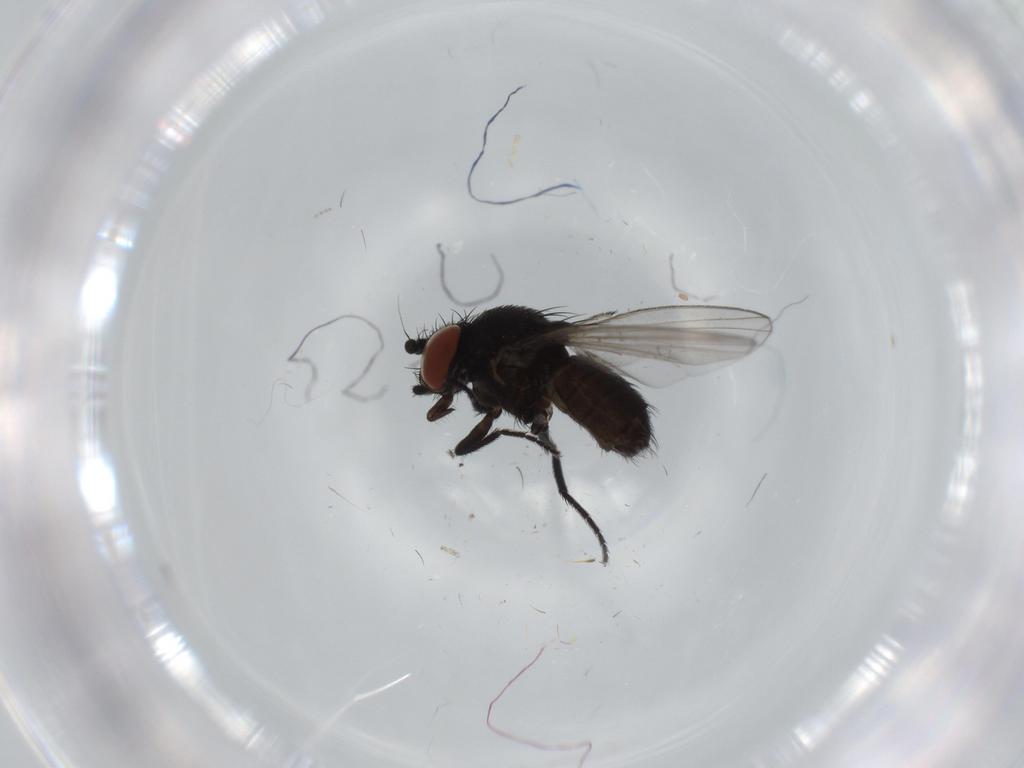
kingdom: Animalia
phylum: Arthropoda
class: Insecta
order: Diptera
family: Milichiidae
